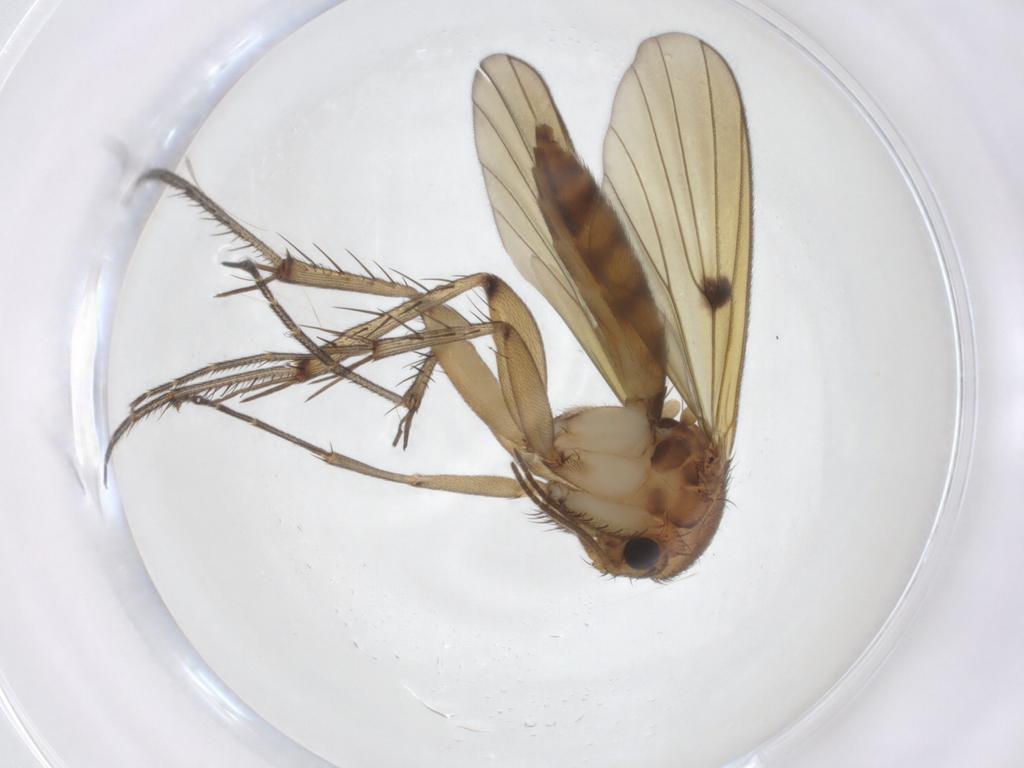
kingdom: Animalia
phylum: Arthropoda
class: Insecta
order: Diptera
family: Mycetophilidae
